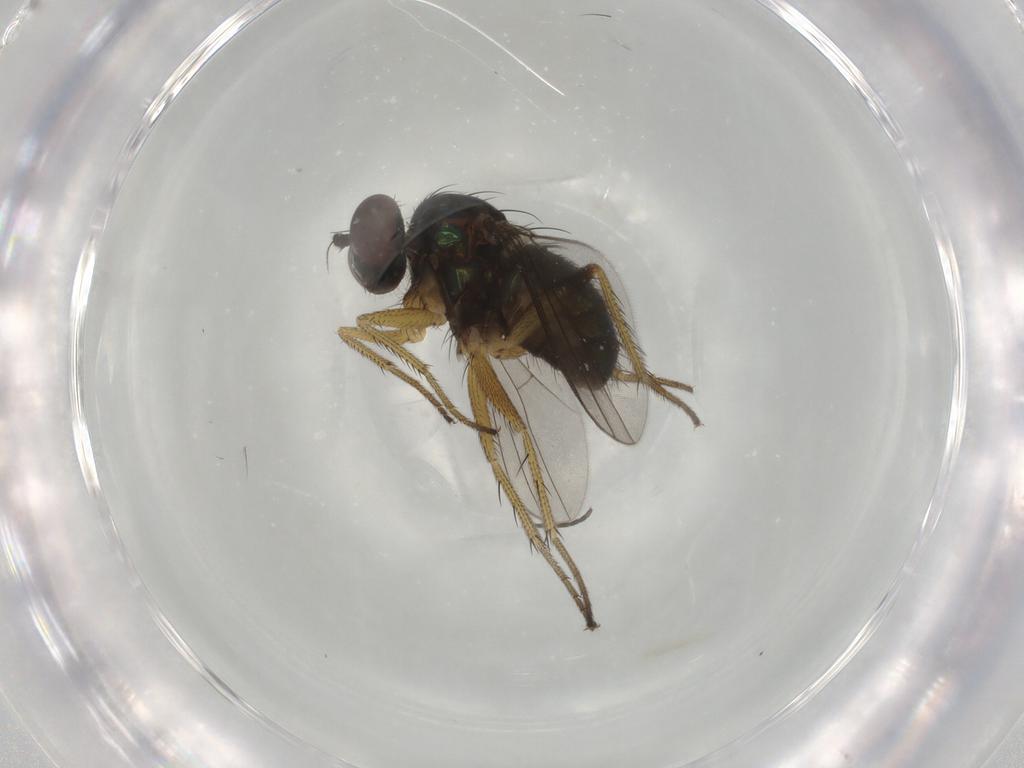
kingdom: Animalia
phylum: Arthropoda
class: Insecta
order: Diptera
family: Dolichopodidae
